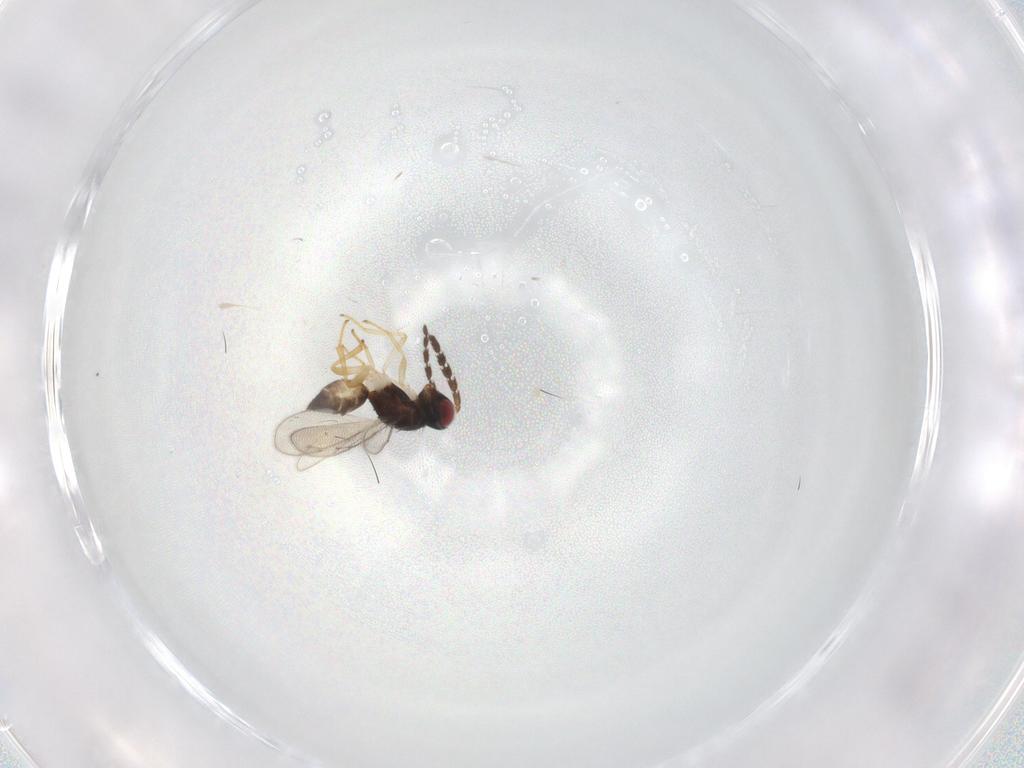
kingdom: Animalia
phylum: Arthropoda
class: Insecta
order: Hymenoptera
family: Eulophidae
